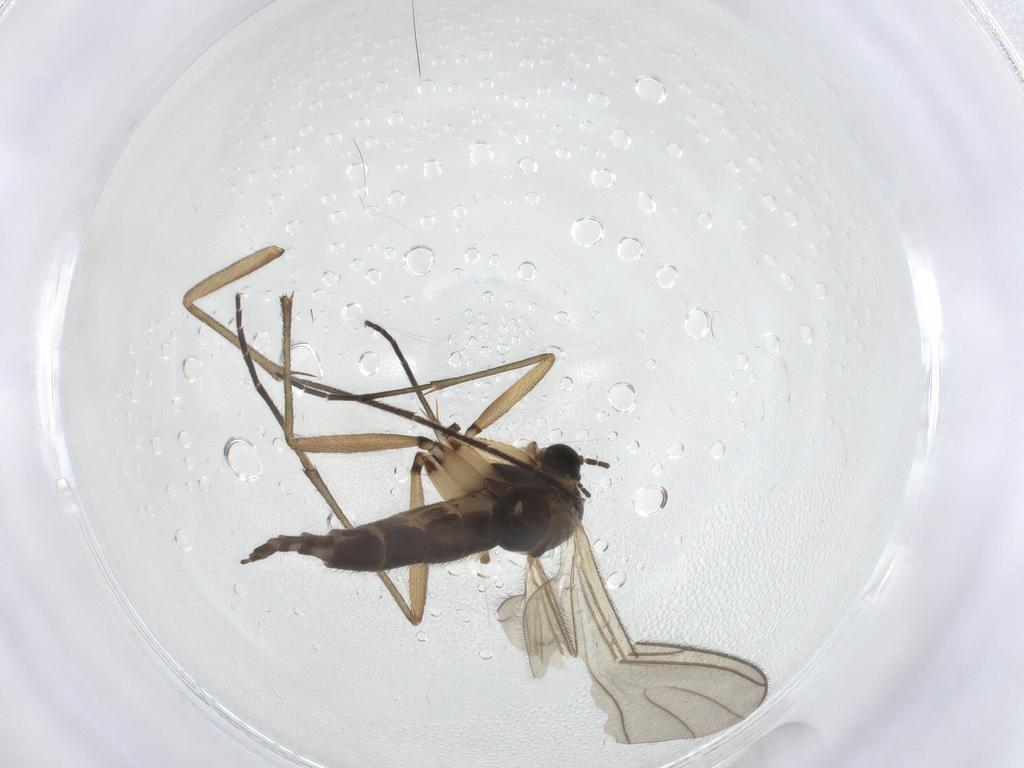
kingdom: Animalia
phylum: Arthropoda
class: Insecta
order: Diptera
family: Sciaridae
